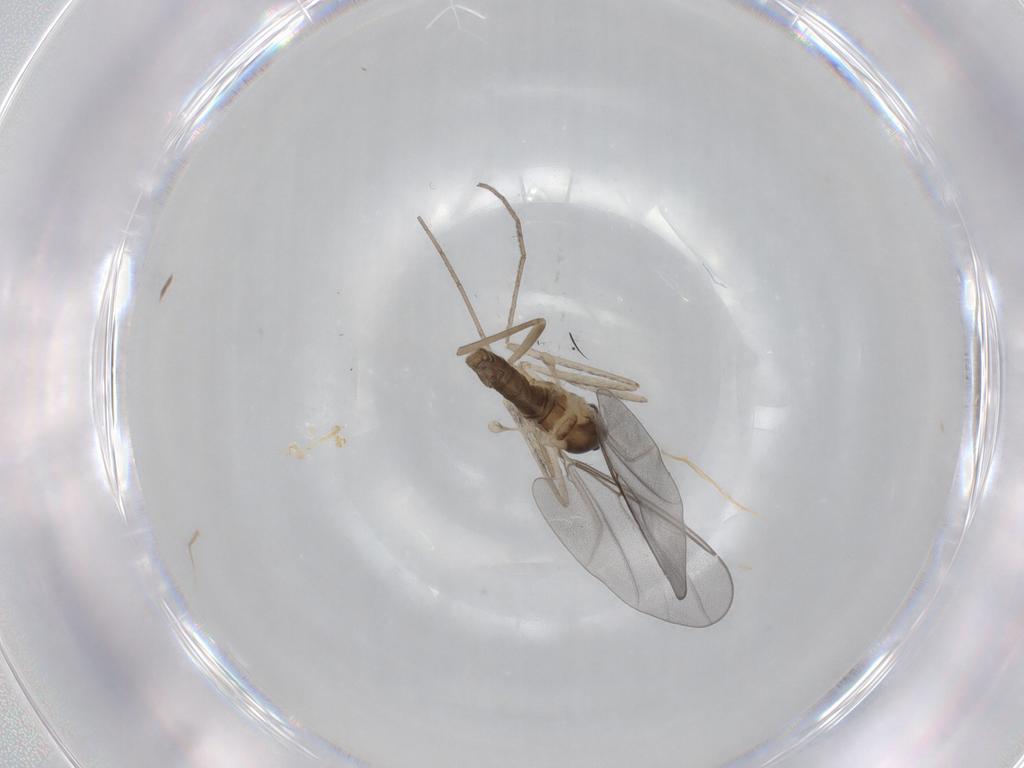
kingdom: Animalia
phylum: Arthropoda
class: Insecta
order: Diptera
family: Cecidomyiidae
